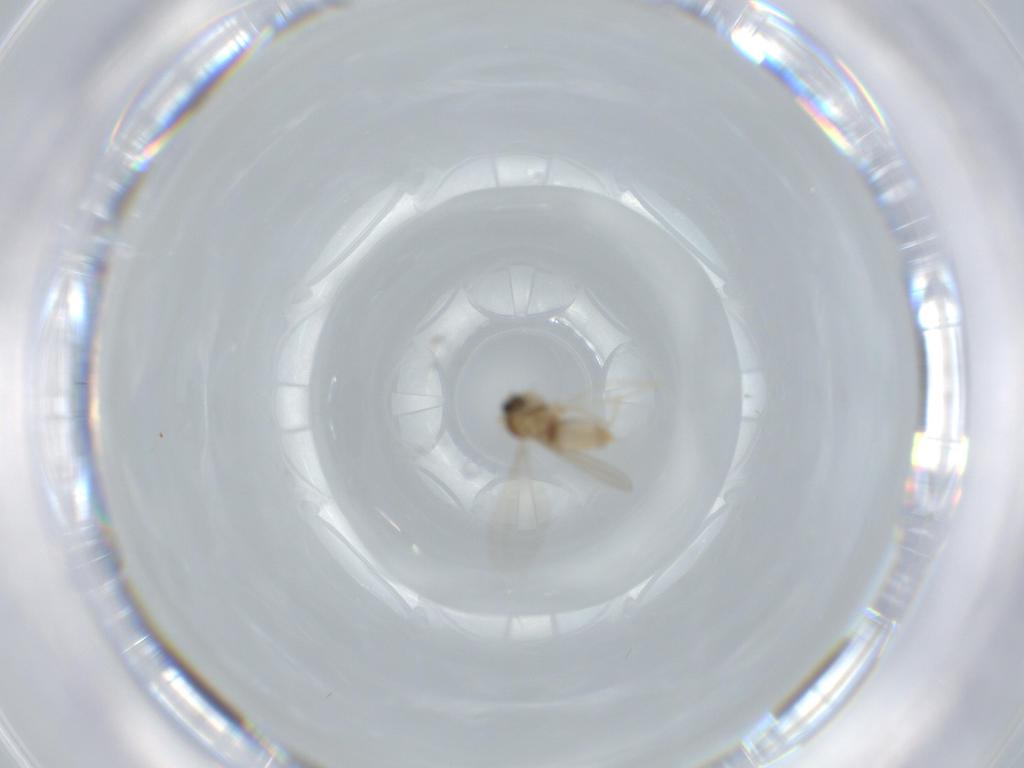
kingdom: Animalia
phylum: Arthropoda
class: Insecta
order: Diptera
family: Cecidomyiidae
